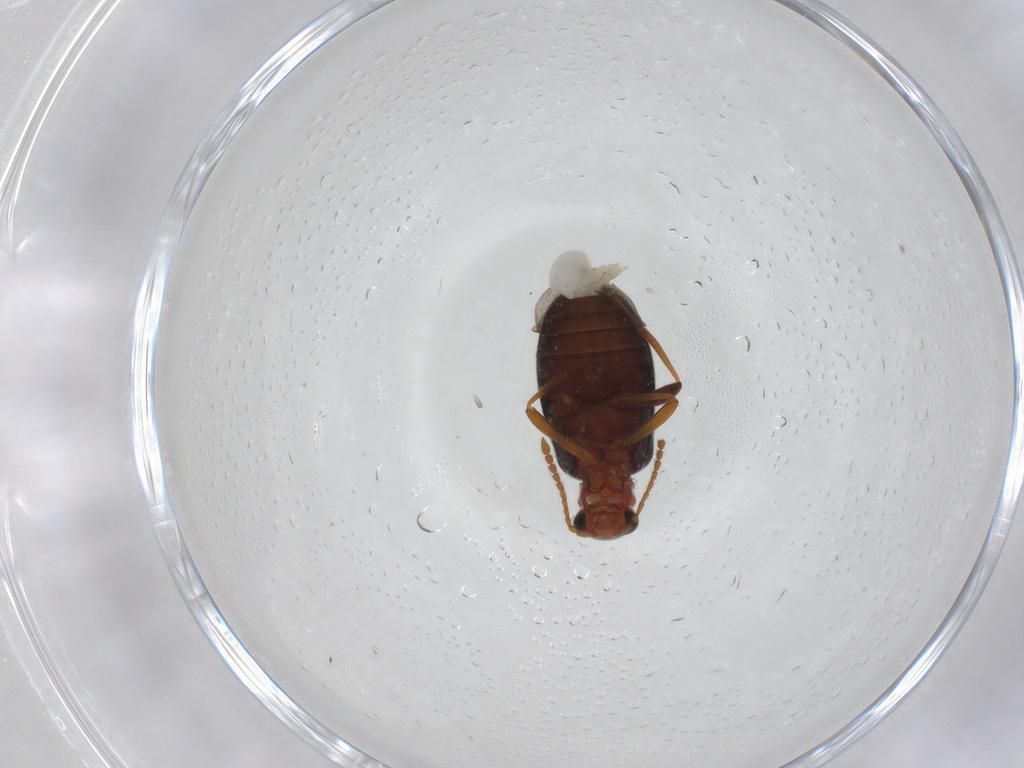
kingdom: Animalia
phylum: Arthropoda
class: Insecta
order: Coleoptera
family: Aderidae
